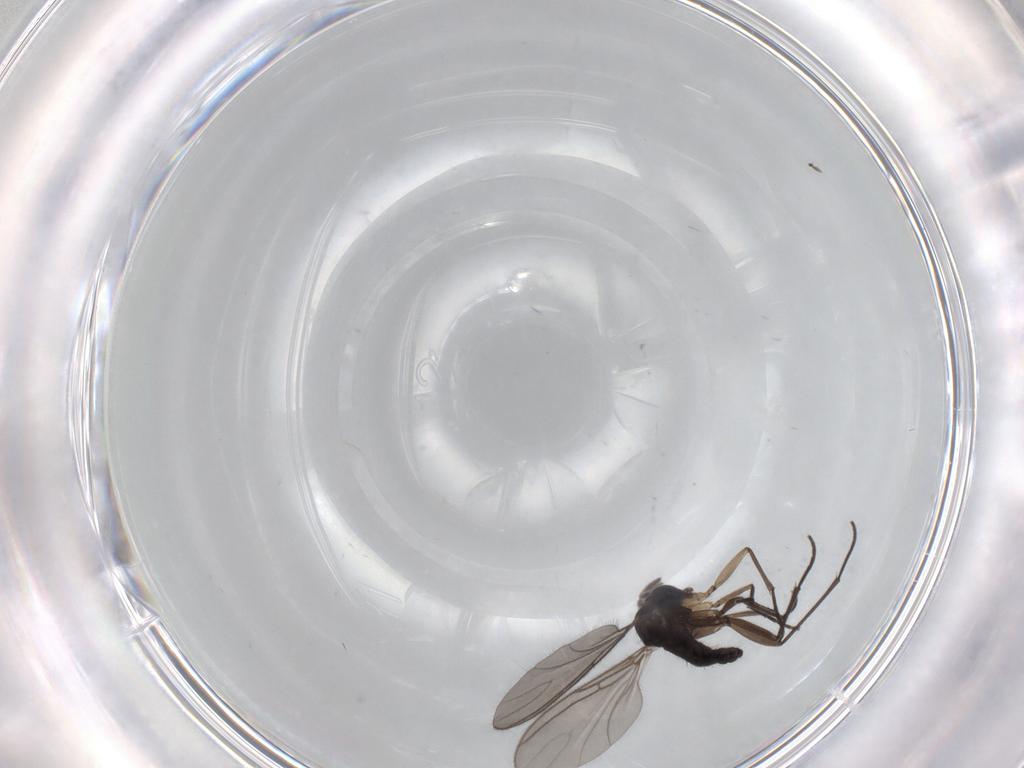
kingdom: Animalia
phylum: Arthropoda
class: Insecta
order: Diptera
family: Sciaridae
